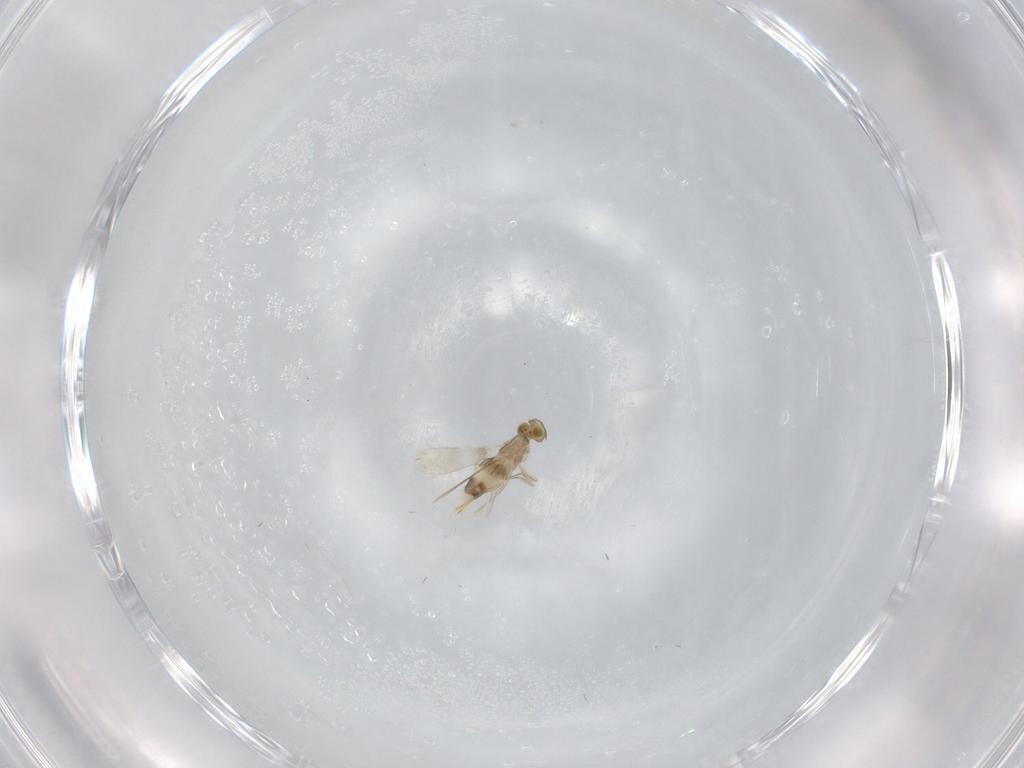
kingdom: Animalia
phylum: Arthropoda
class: Insecta
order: Hymenoptera
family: Aphelinidae
